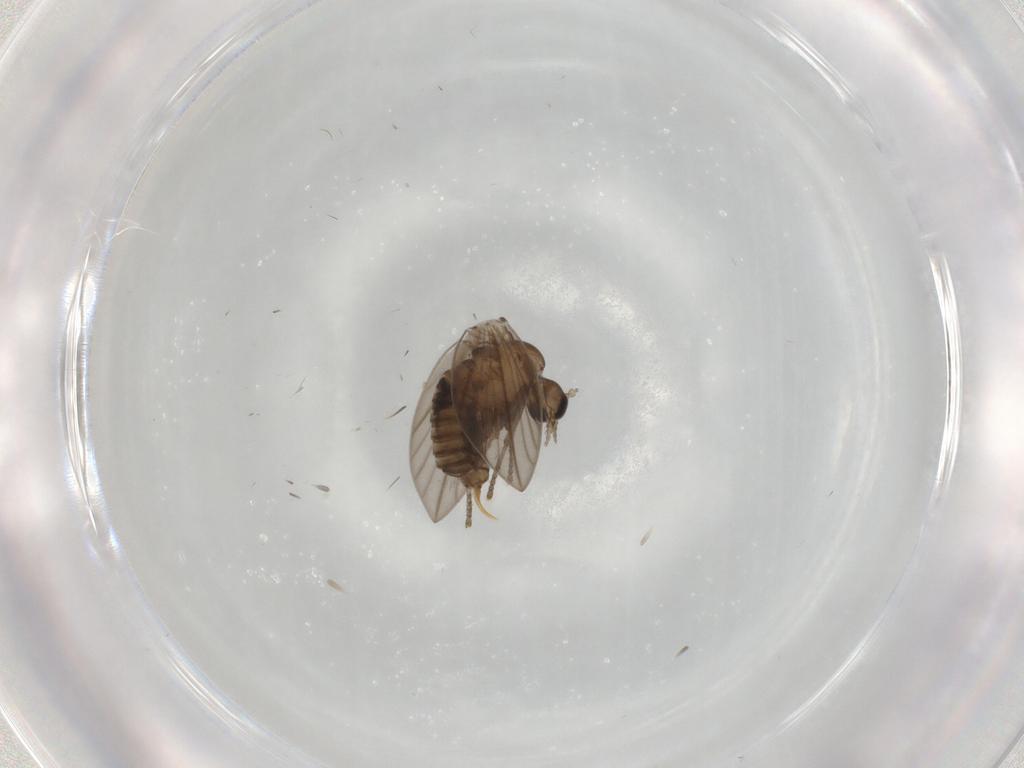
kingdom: Animalia
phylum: Arthropoda
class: Insecta
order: Diptera
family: Psychodidae
